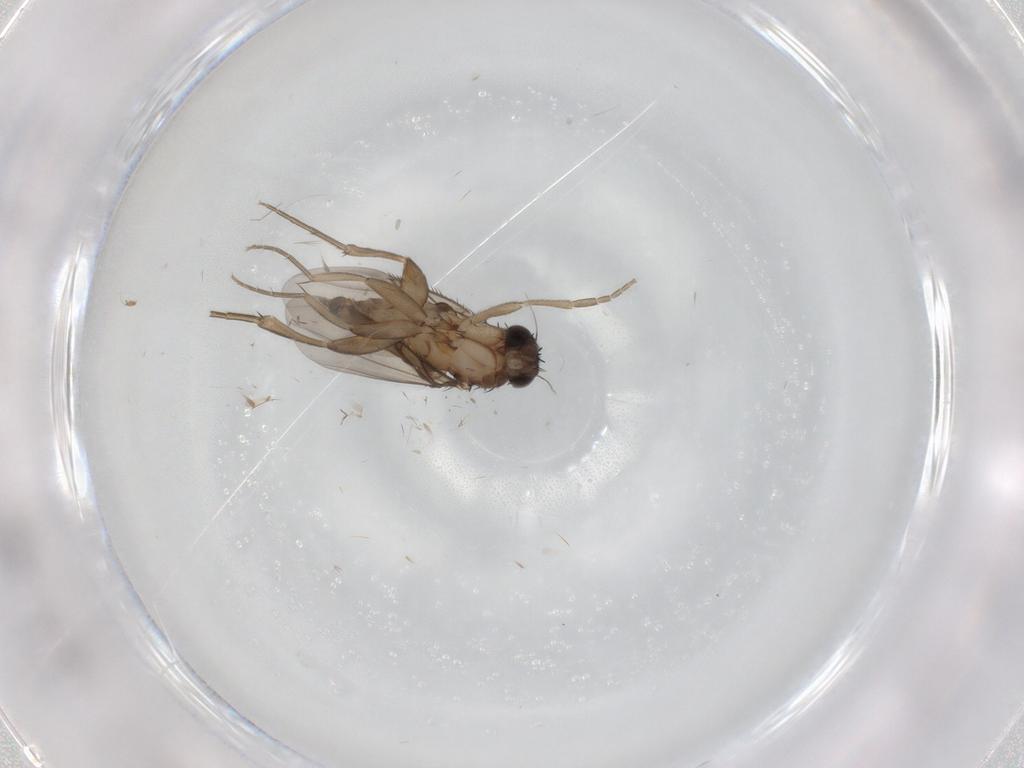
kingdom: Animalia
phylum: Arthropoda
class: Insecta
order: Diptera
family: Phoridae
